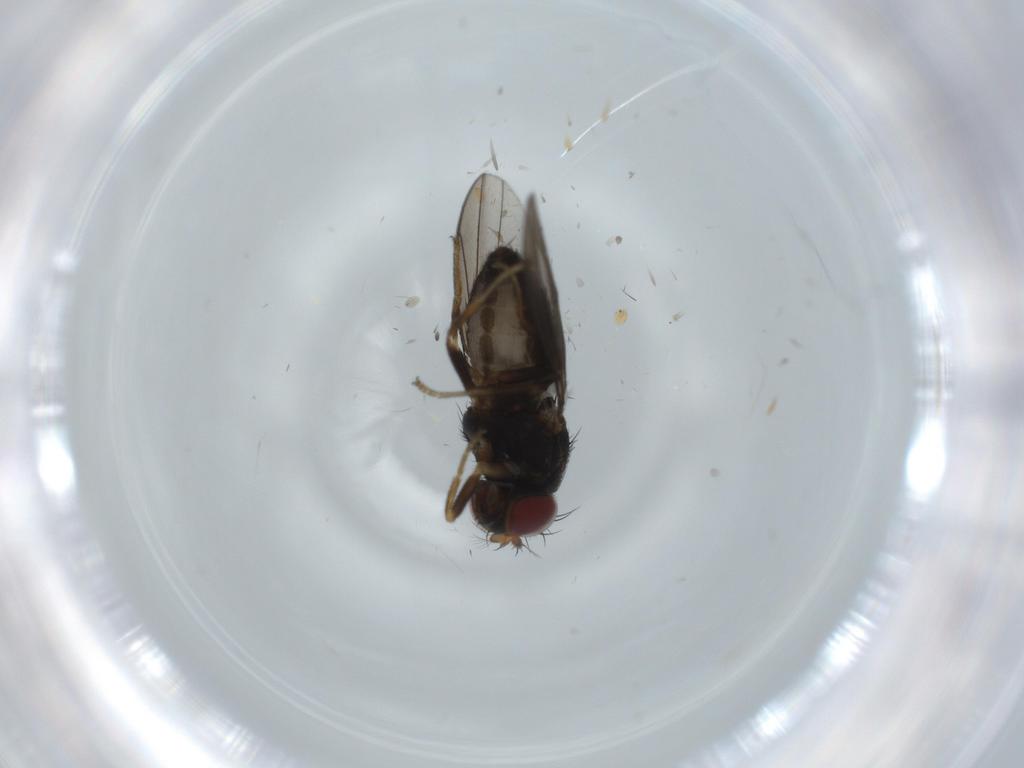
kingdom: Animalia
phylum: Arthropoda
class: Insecta
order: Diptera
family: Ephydridae
